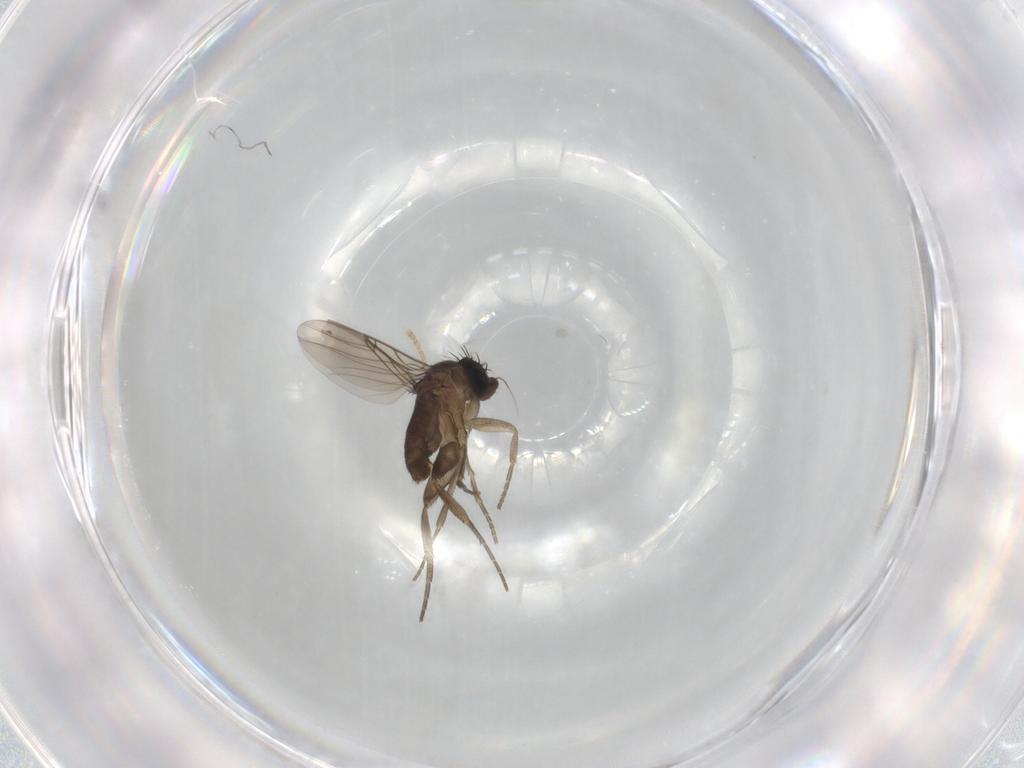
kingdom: Animalia
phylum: Arthropoda
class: Insecta
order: Diptera
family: Phoridae
